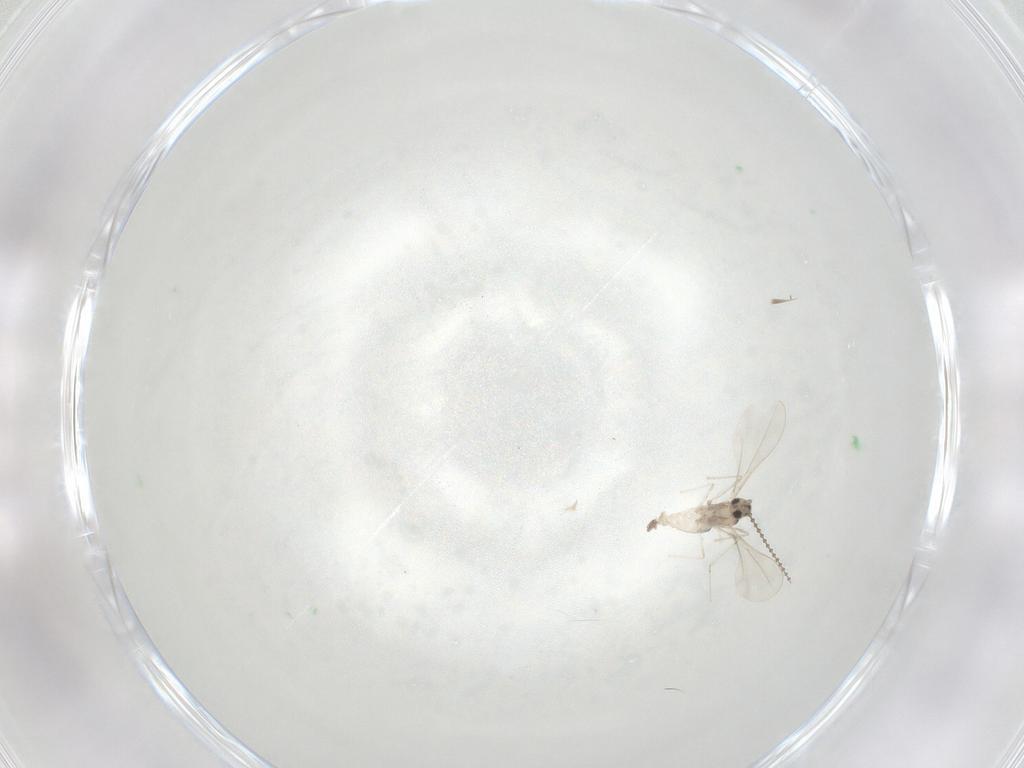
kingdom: Animalia
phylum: Arthropoda
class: Insecta
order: Diptera
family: Cecidomyiidae
